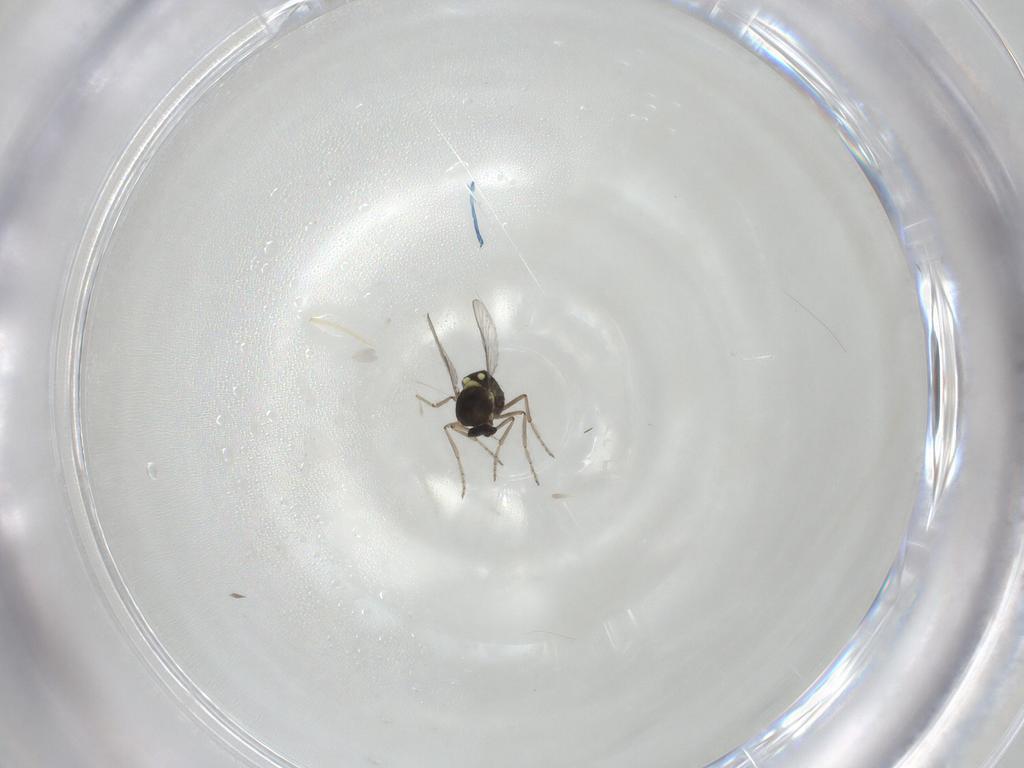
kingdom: Animalia
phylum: Arthropoda
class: Insecta
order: Diptera
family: Ceratopogonidae
